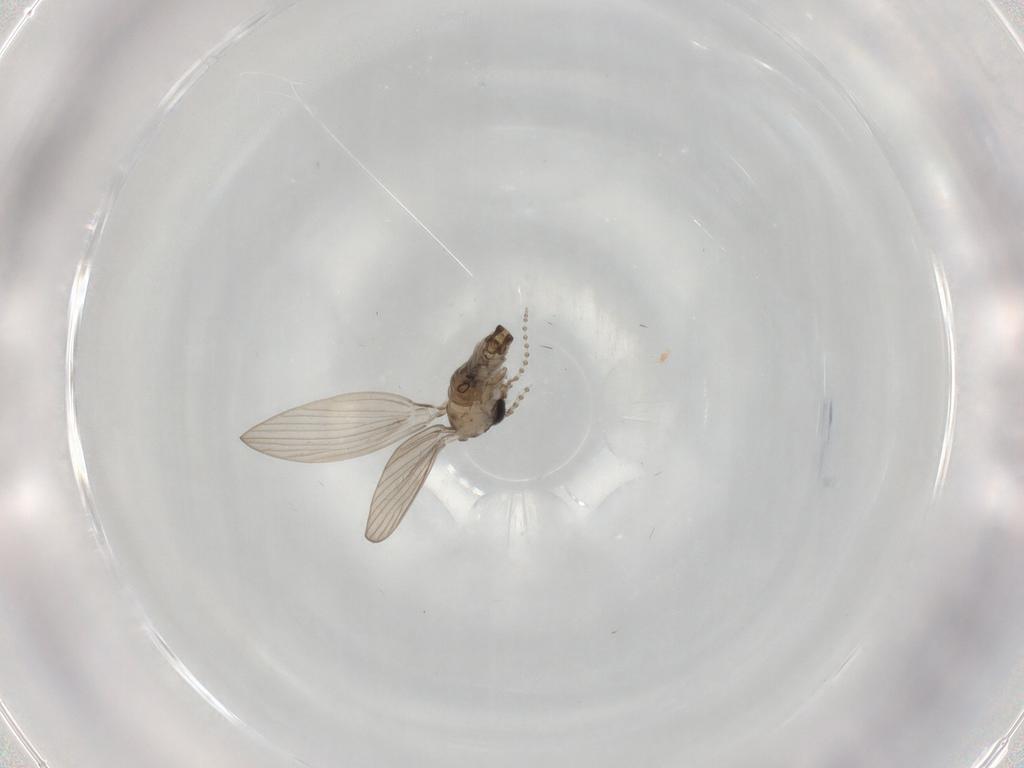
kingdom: Animalia
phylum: Arthropoda
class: Insecta
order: Diptera
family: Psychodidae
